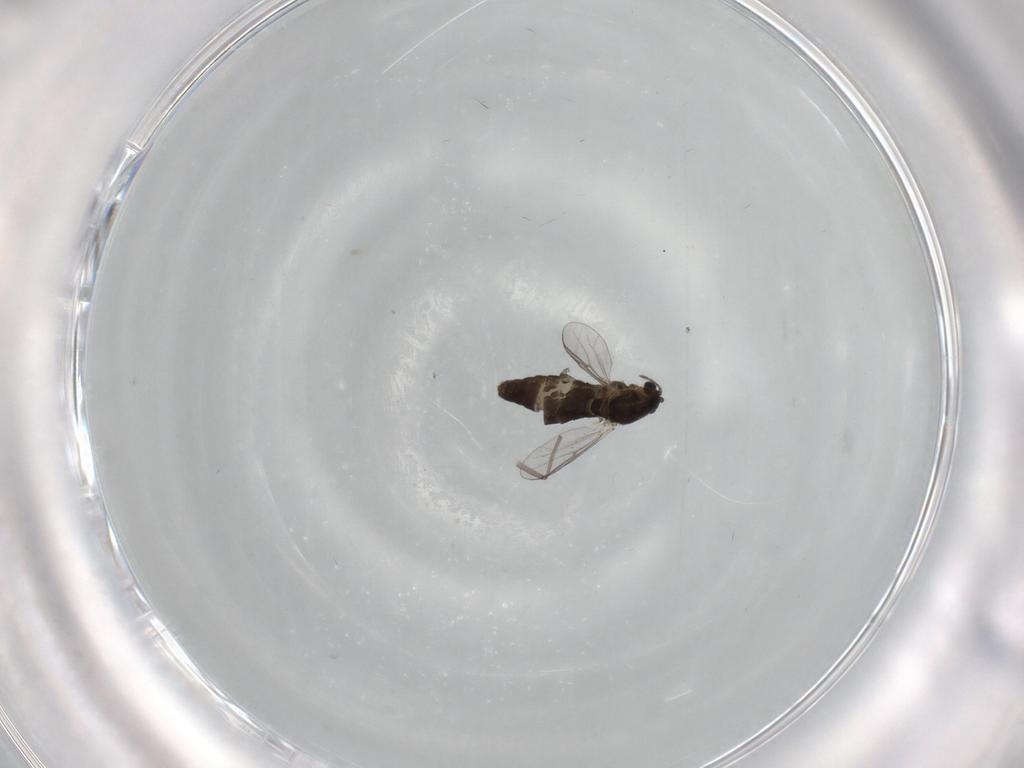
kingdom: Animalia
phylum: Arthropoda
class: Insecta
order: Diptera
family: Chironomidae
